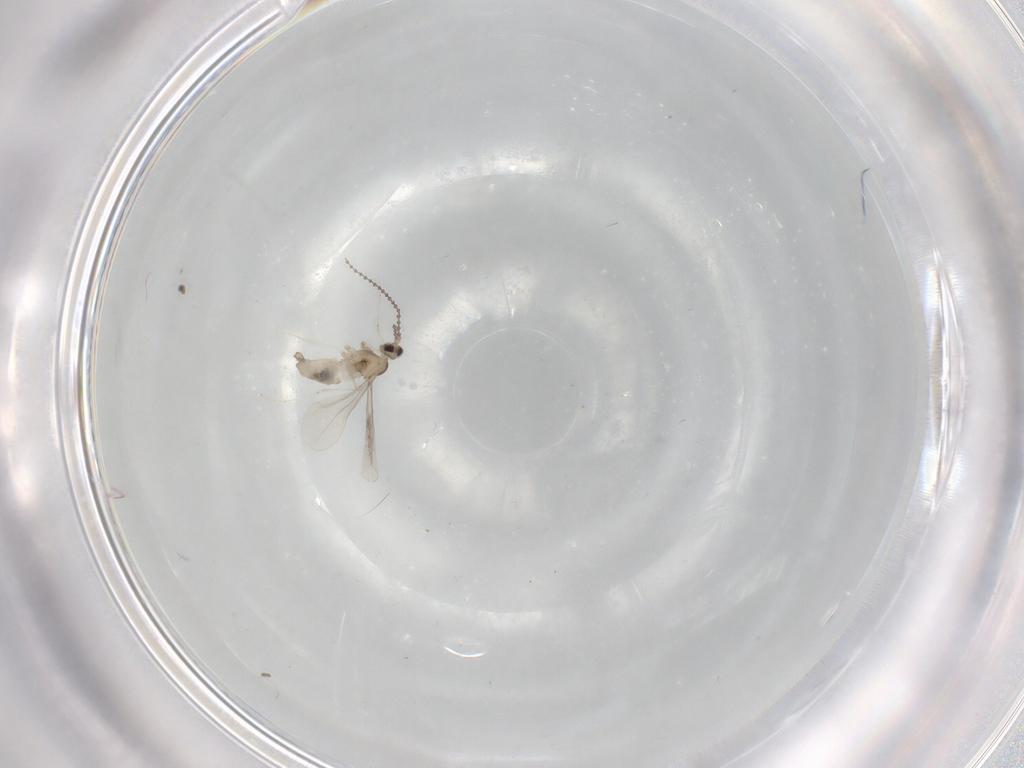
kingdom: Animalia
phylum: Arthropoda
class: Insecta
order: Diptera
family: Cecidomyiidae
